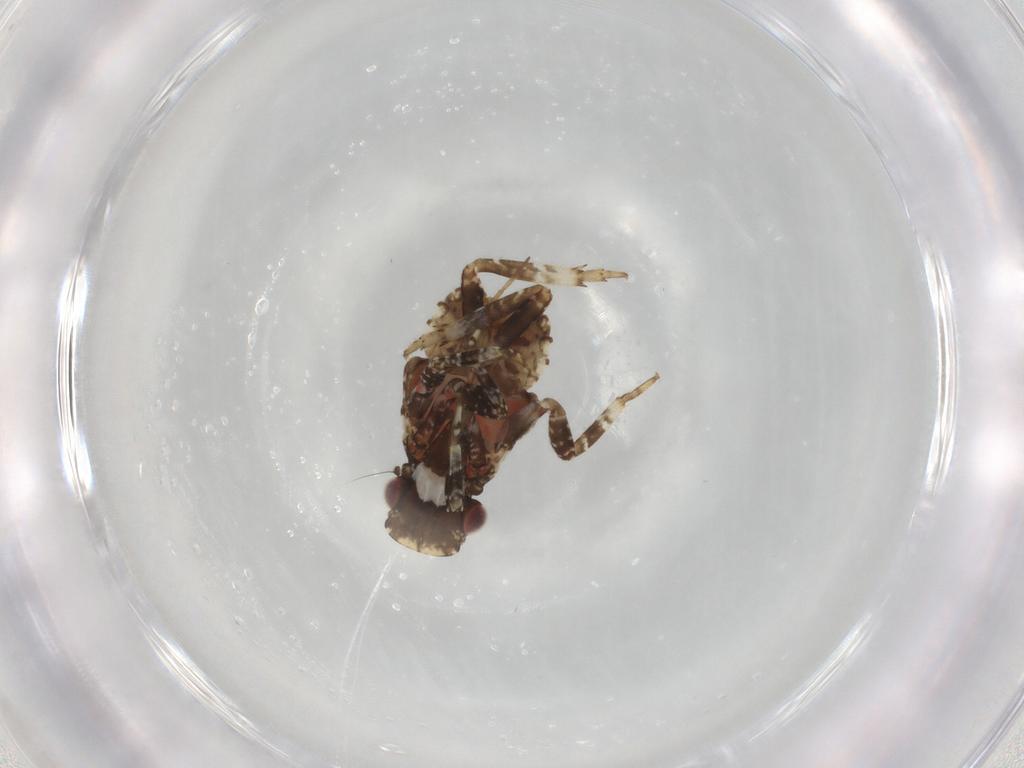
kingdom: Animalia
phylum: Arthropoda
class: Insecta
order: Hemiptera
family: Fulgoridae
